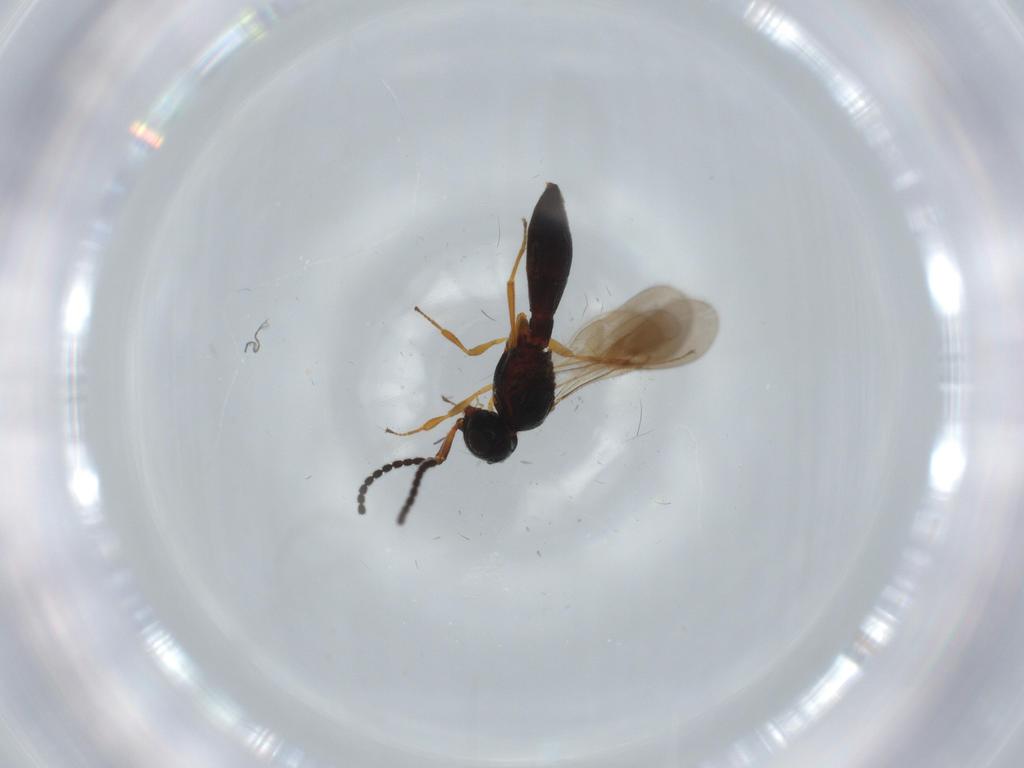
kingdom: Animalia
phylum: Arthropoda
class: Insecta
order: Hymenoptera
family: Scelionidae
